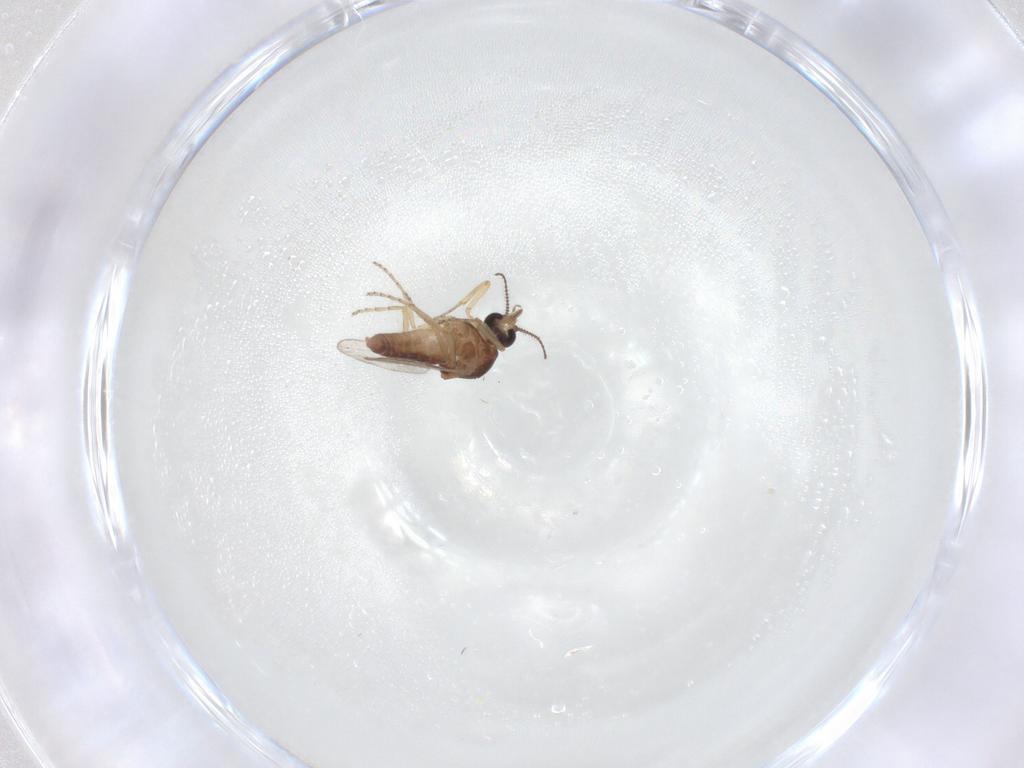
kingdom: Animalia
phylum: Arthropoda
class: Insecta
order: Diptera
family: Ceratopogonidae
